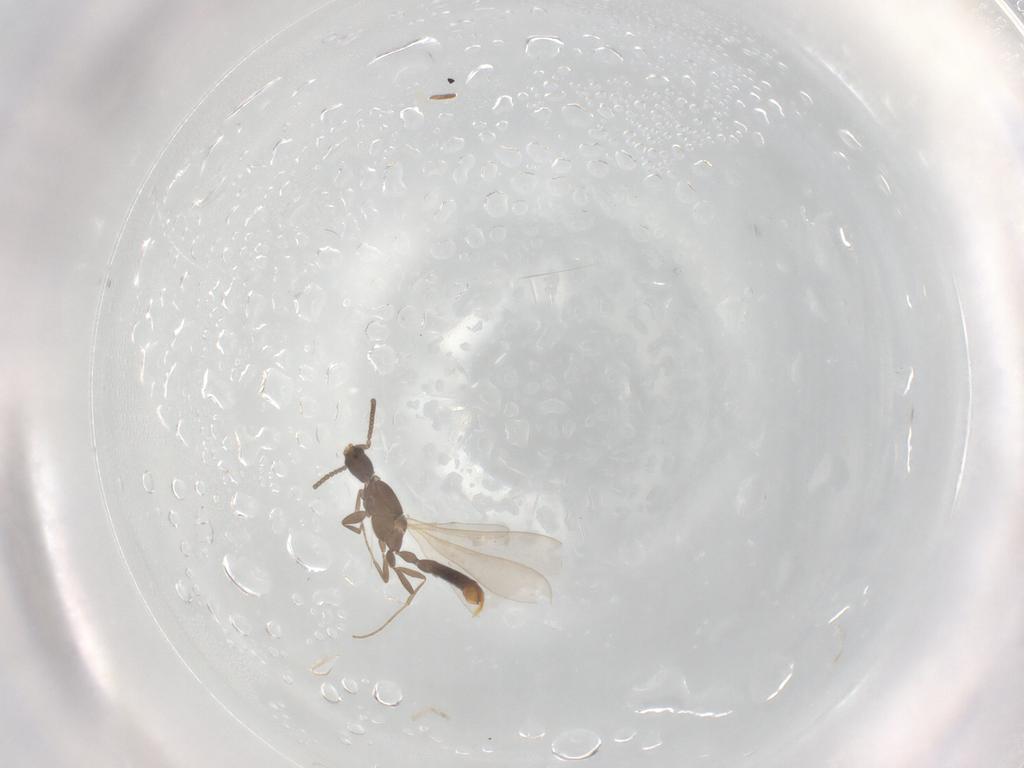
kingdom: Animalia
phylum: Arthropoda
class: Insecta
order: Hymenoptera
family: Formicidae
